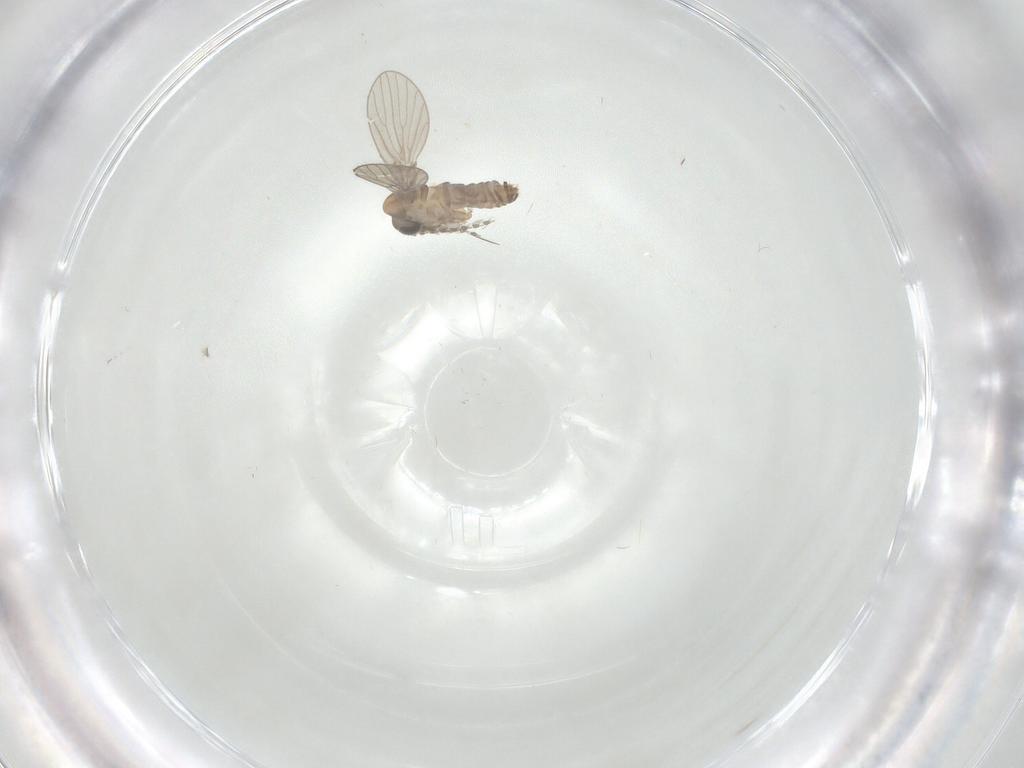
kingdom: Animalia
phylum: Arthropoda
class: Insecta
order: Diptera
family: Psychodidae
